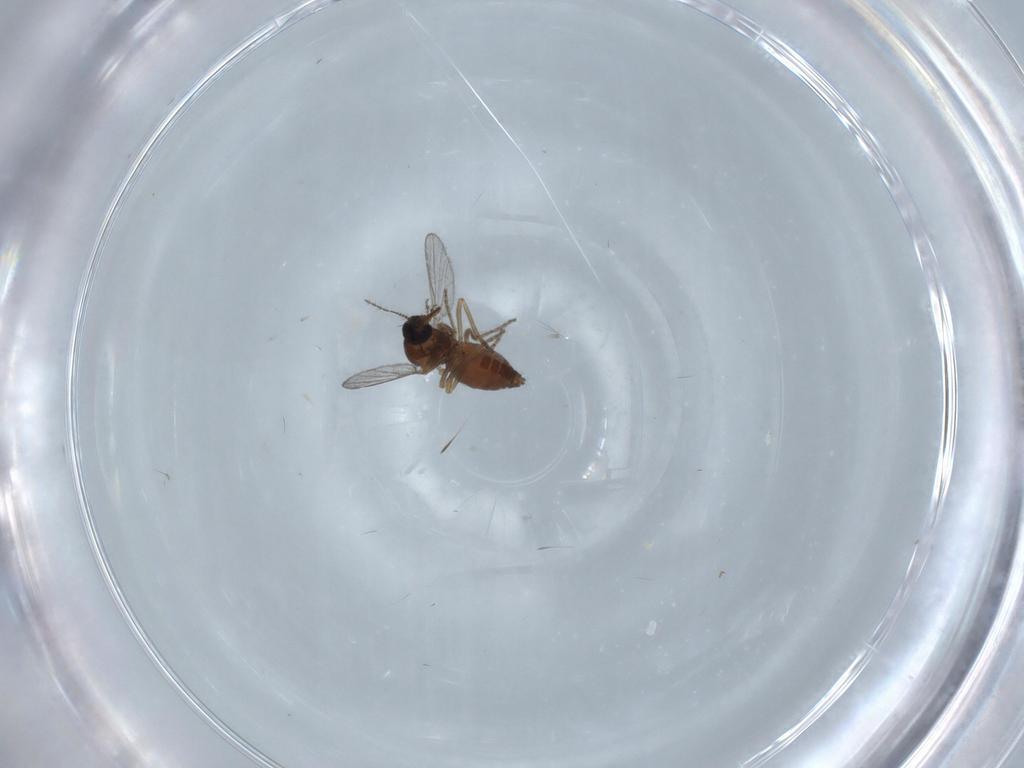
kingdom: Animalia
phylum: Arthropoda
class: Insecta
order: Diptera
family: Ceratopogonidae
